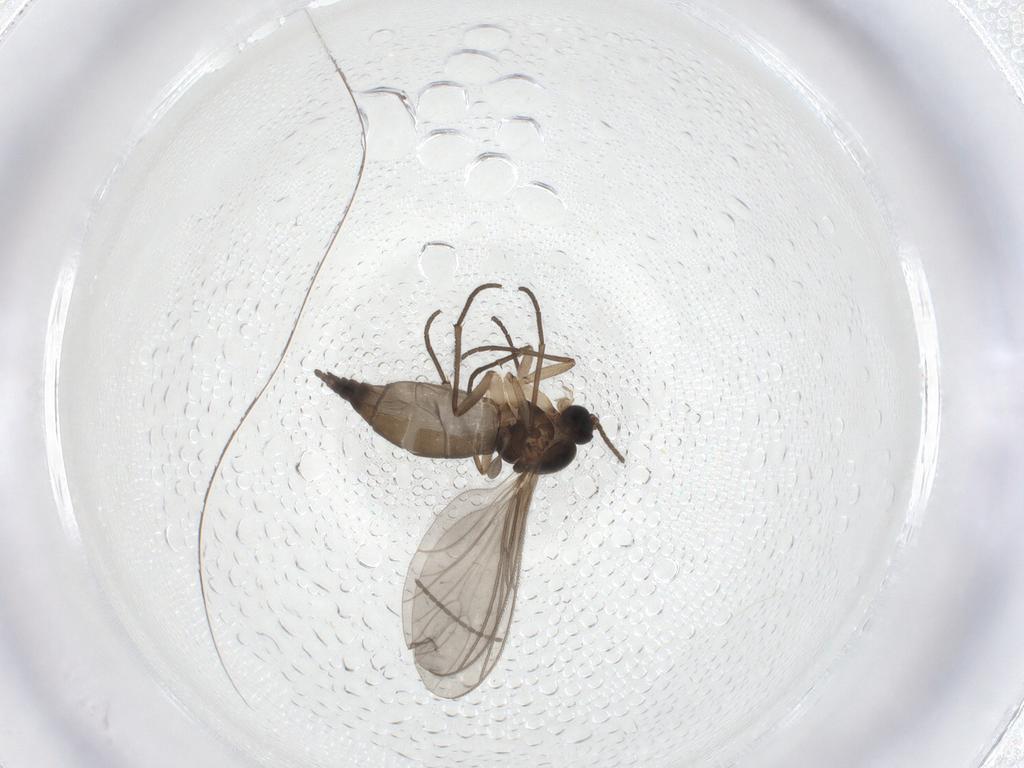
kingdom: Animalia
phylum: Arthropoda
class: Insecta
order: Diptera
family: Sciaridae
